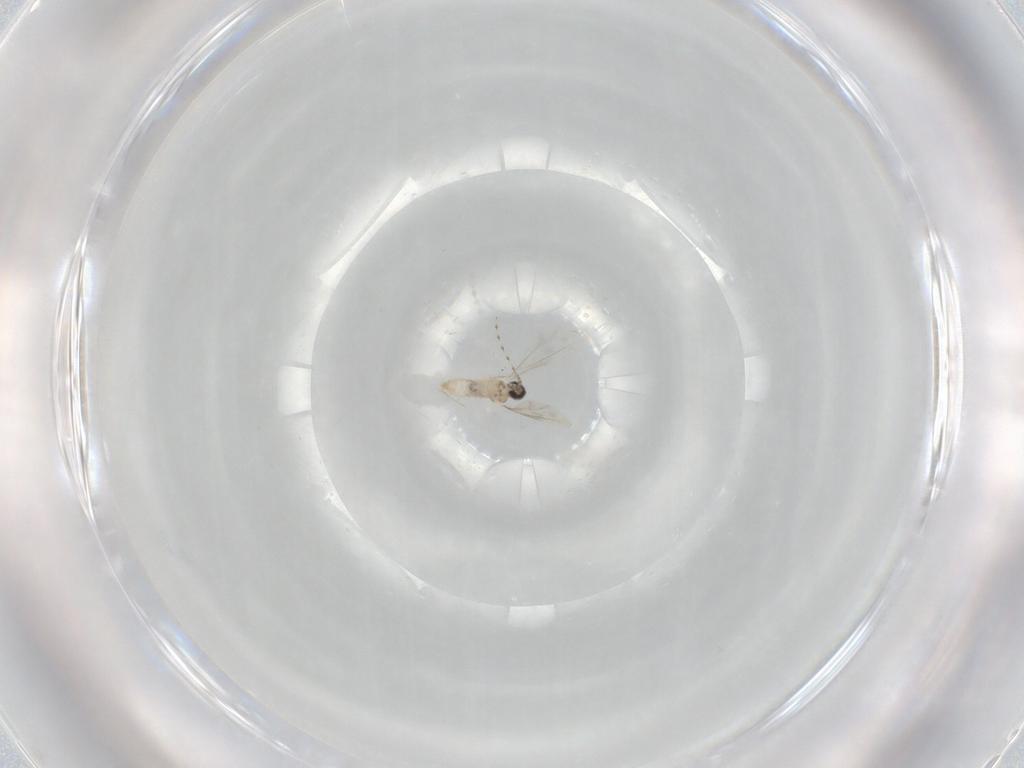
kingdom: Animalia
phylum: Arthropoda
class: Insecta
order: Diptera
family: Cecidomyiidae
